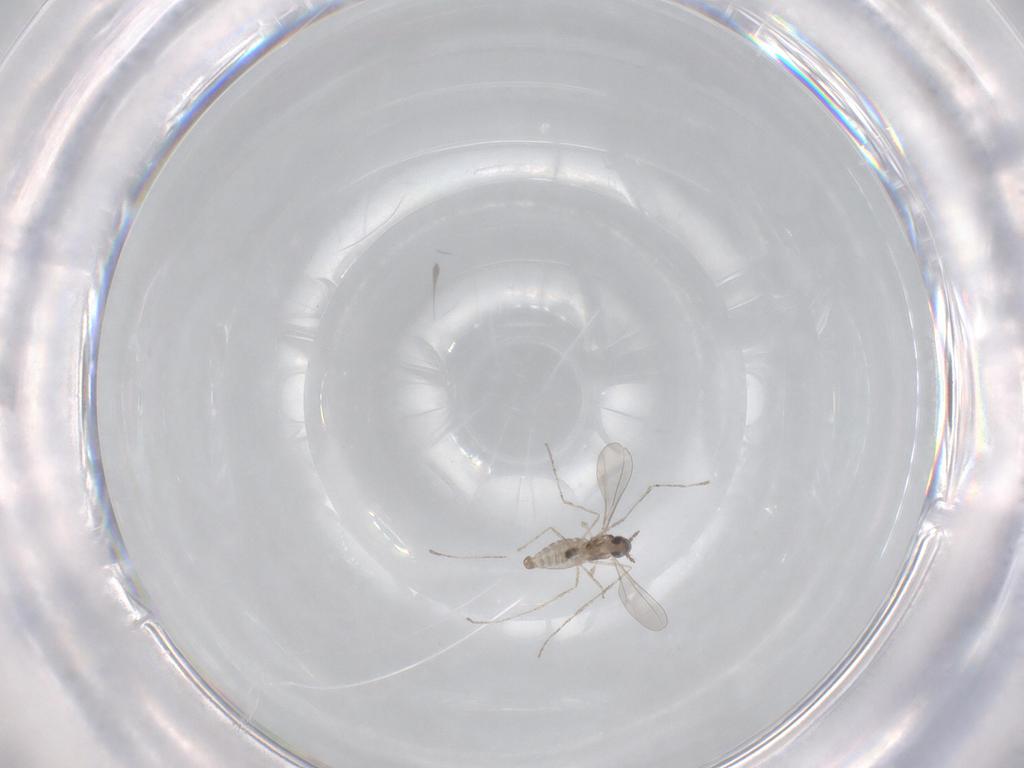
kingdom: Animalia
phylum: Arthropoda
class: Insecta
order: Diptera
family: Cecidomyiidae
